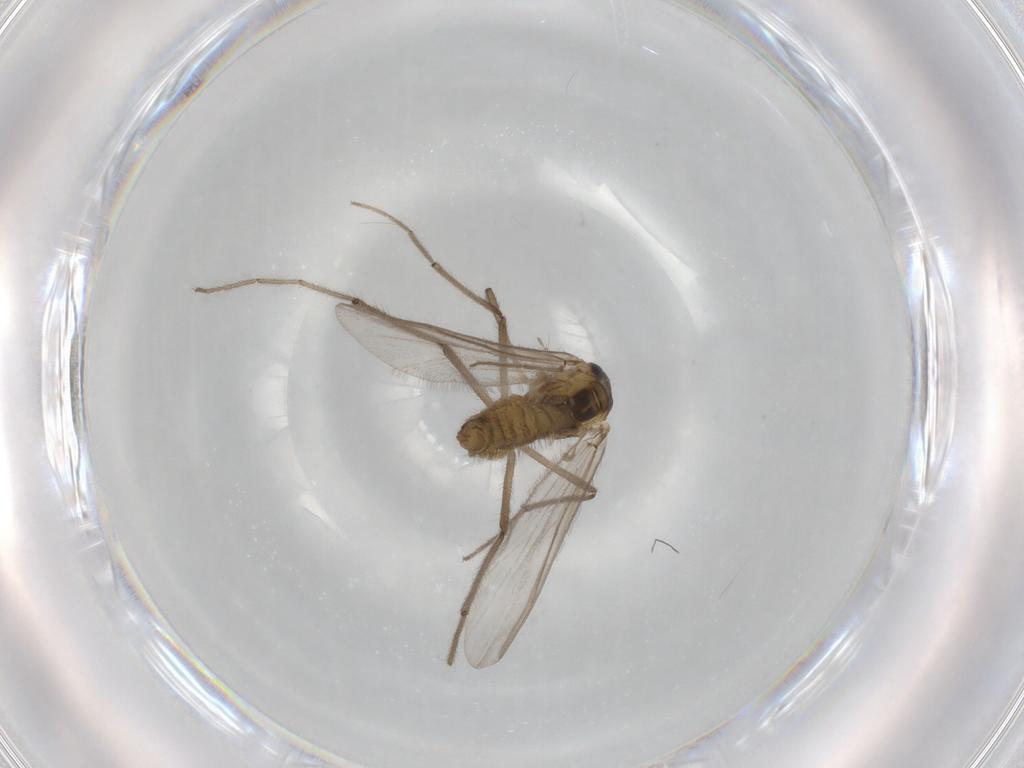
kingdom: Animalia
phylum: Arthropoda
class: Insecta
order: Diptera
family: Chironomidae
